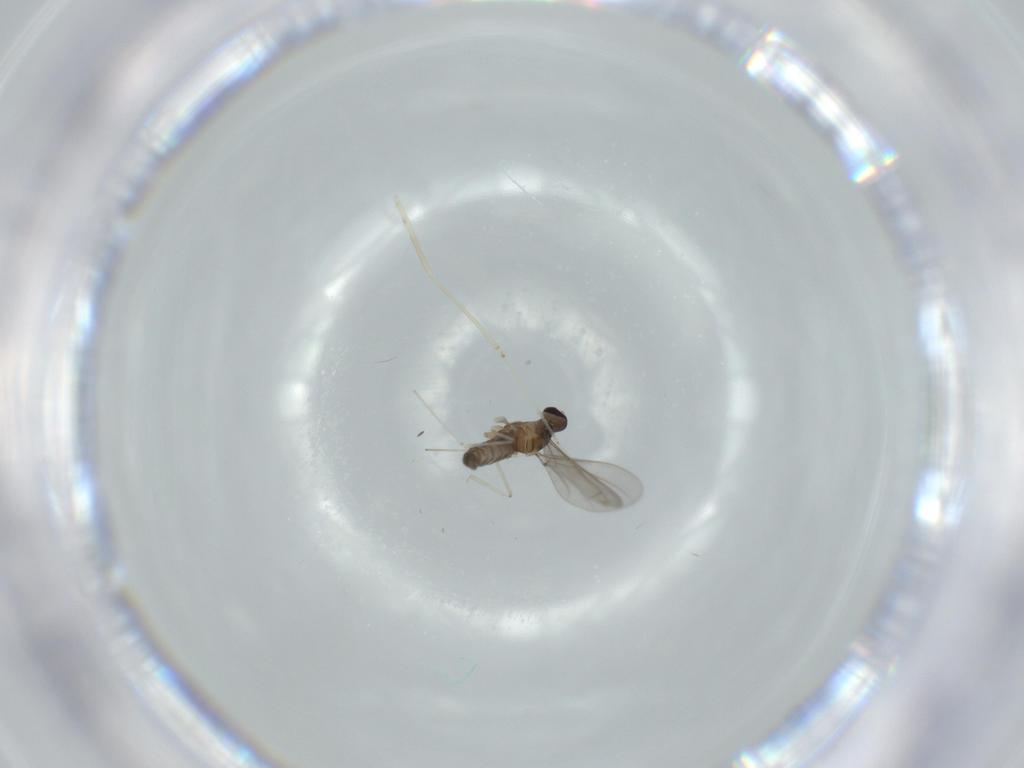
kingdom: Animalia
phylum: Arthropoda
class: Insecta
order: Diptera
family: Cecidomyiidae
